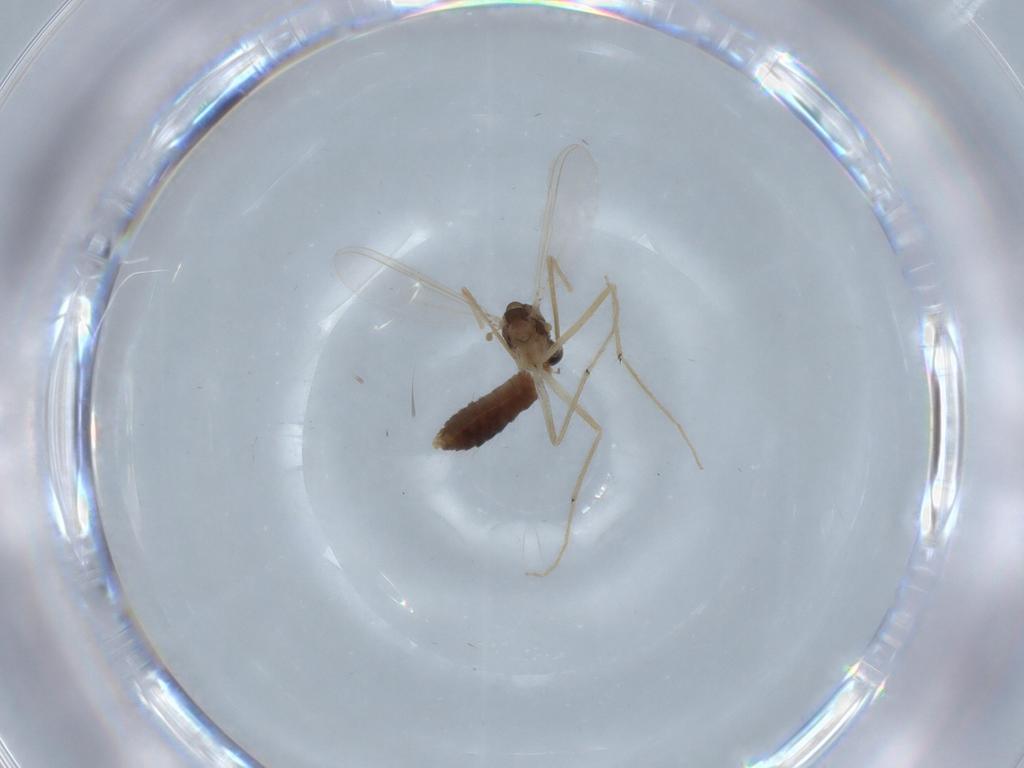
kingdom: Animalia
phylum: Arthropoda
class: Insecta
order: Diptera
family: Chironomidae
